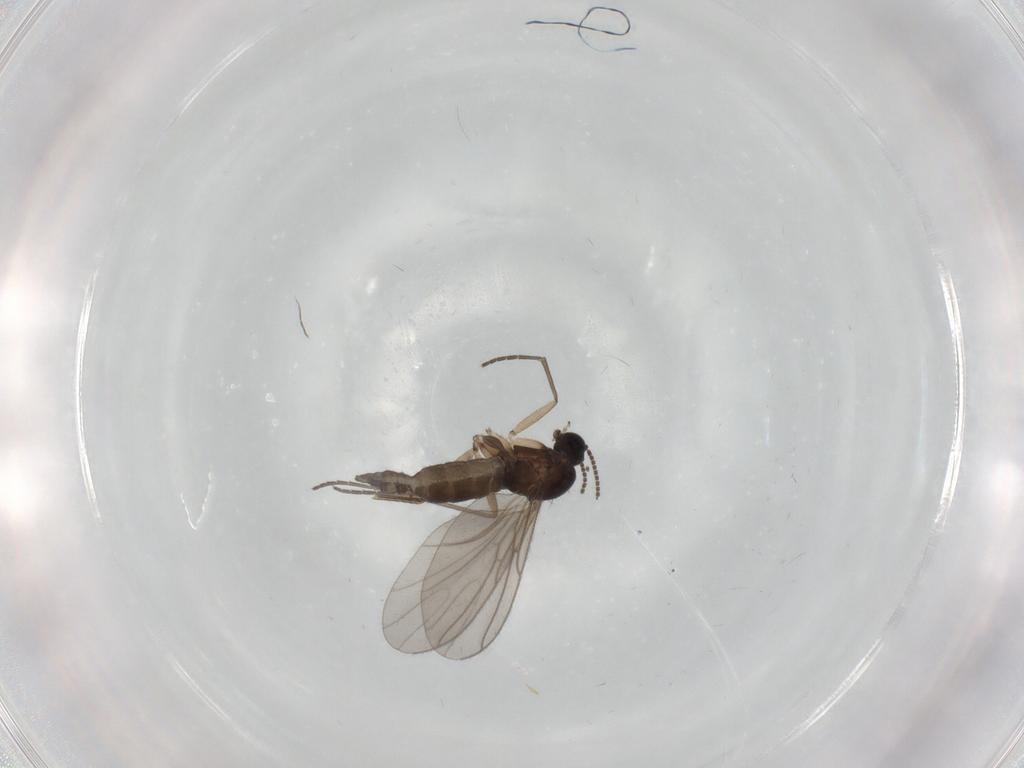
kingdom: Animalia
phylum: Arthropoda
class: Insecta
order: Diptera
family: Sciaridae
